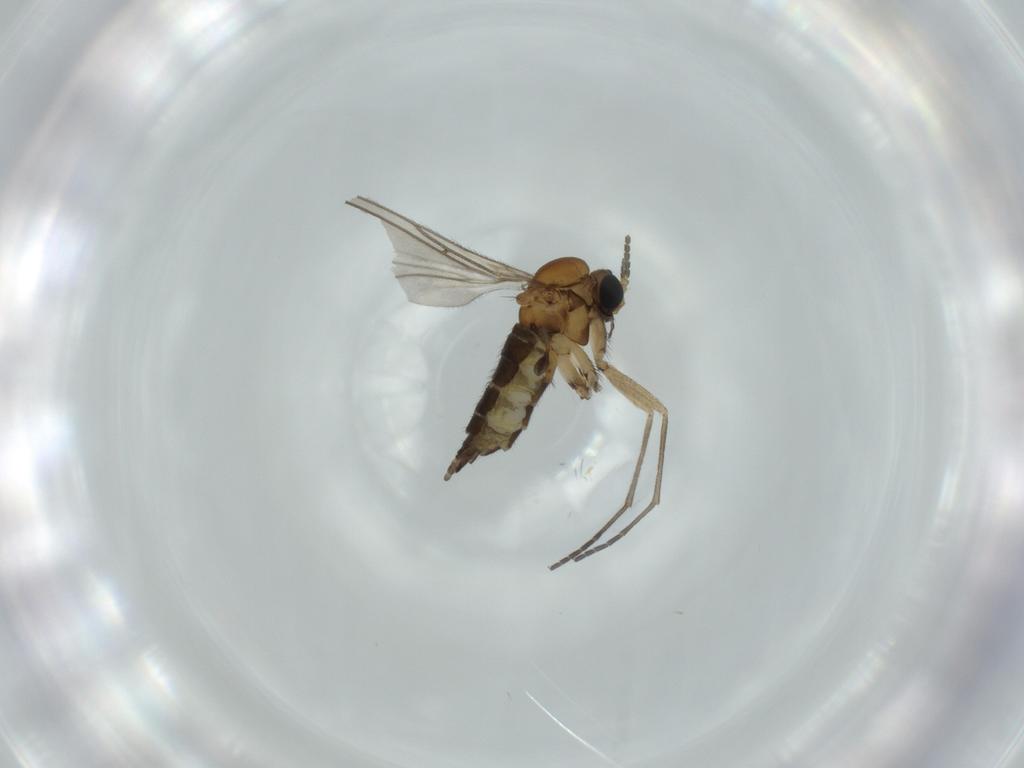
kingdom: Animalia
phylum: Arthropoda
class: Insecta
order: Diptera
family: Sciaridae
